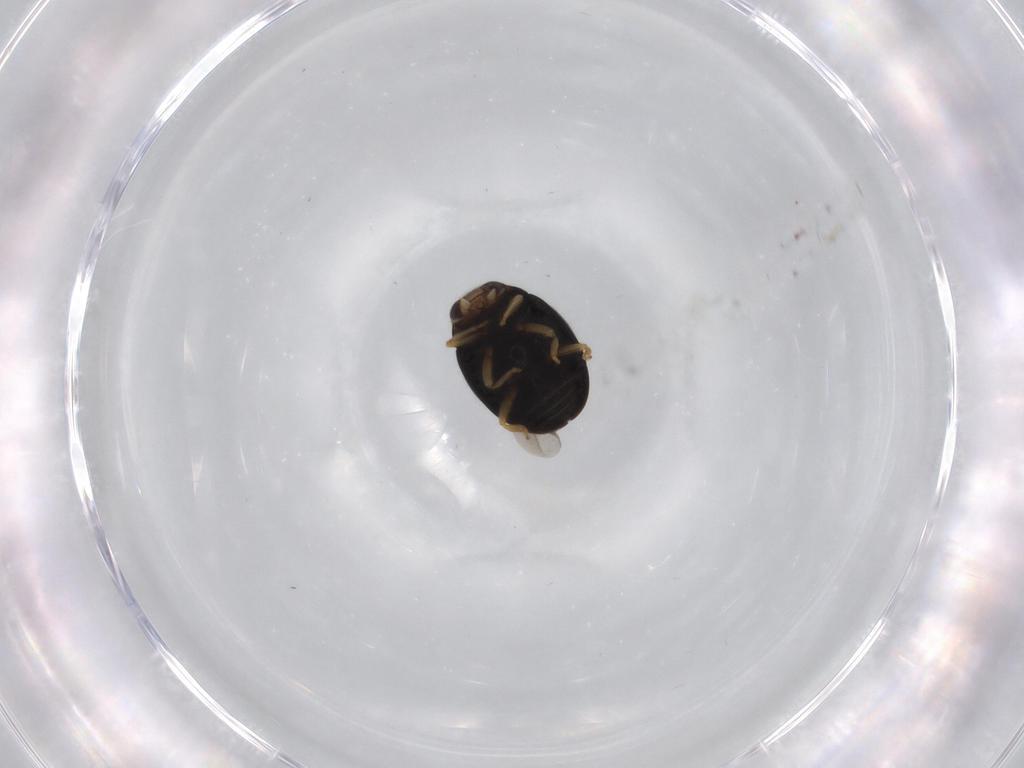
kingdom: Animalia
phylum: Arthropoda
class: Insecta
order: Coleoptera
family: Coccinellidae
